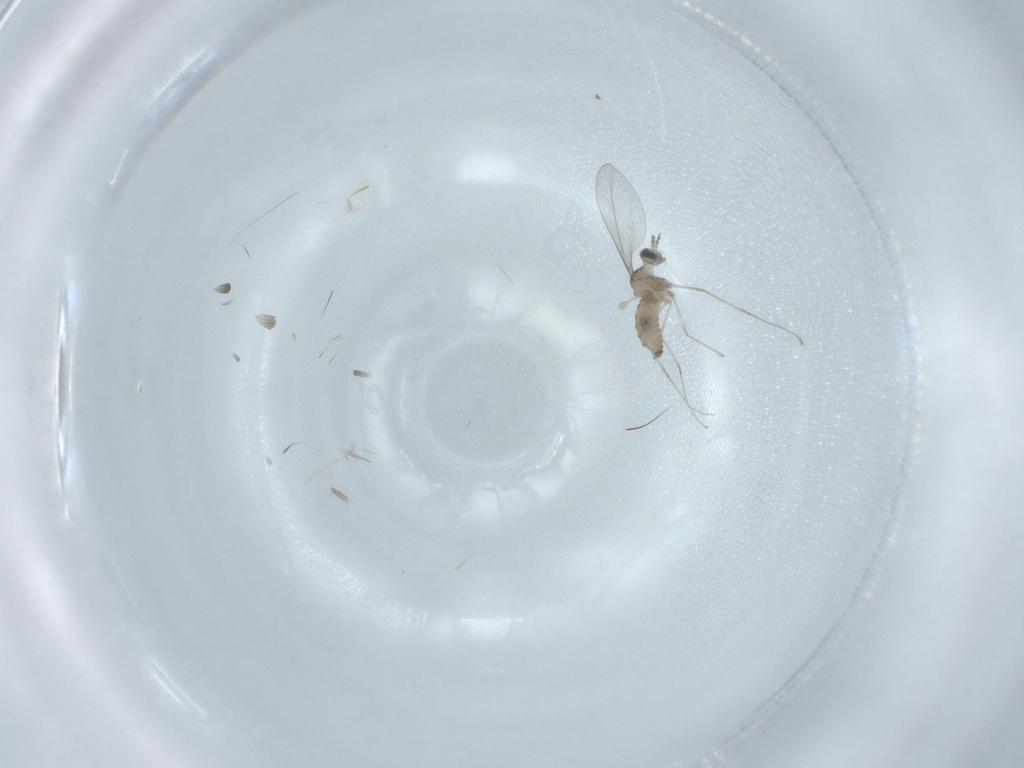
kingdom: Animalia
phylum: Arthropoda
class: Insecta
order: Diptera
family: Cecidomyiidae
